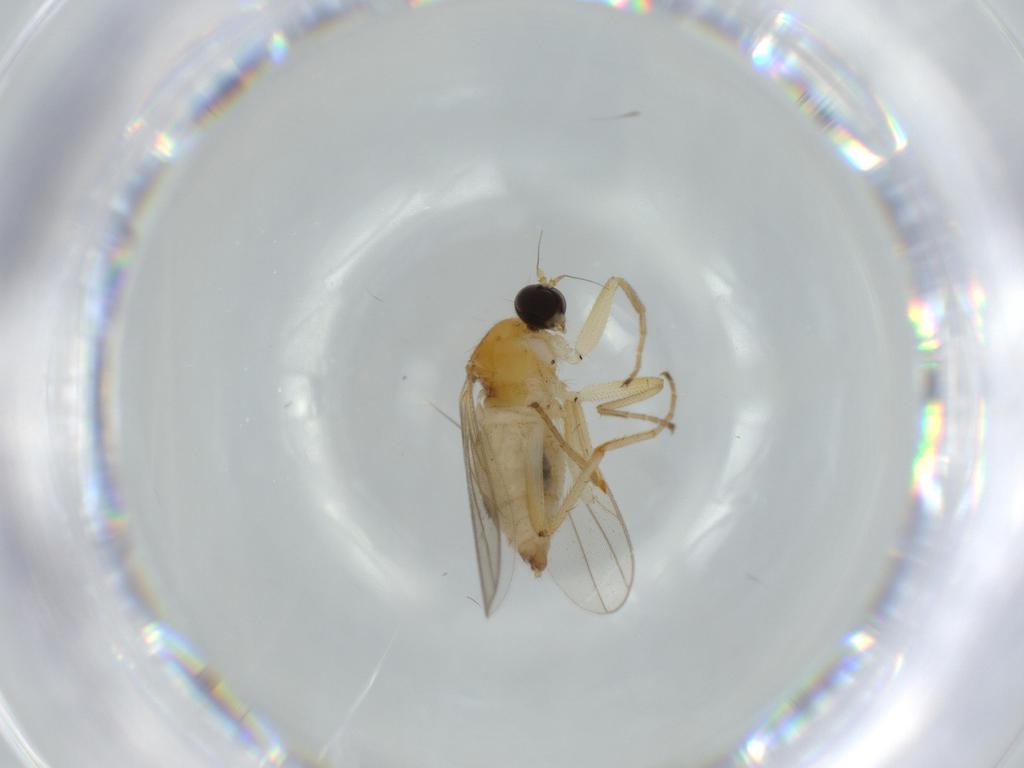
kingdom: Animalia
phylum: Arthropoda
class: Insecta
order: Diptera
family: Hybotidae
